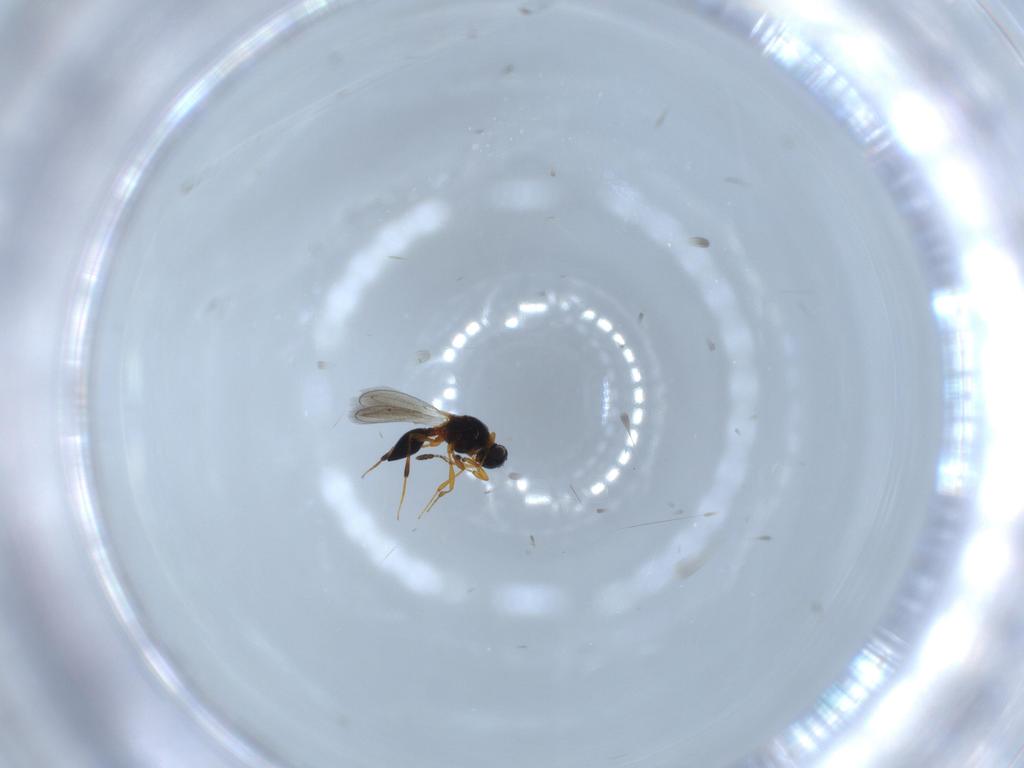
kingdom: Animalia
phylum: Arthropoda
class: Insecta
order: Hymenoptera
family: Platygastridae
